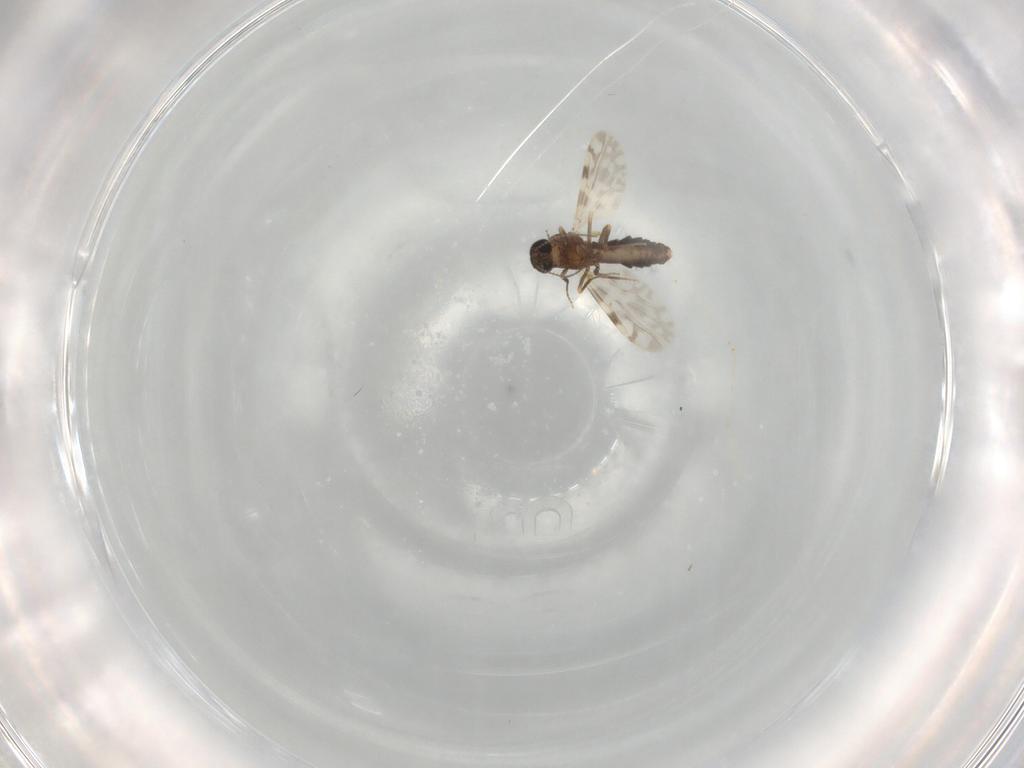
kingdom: Animalia
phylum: Arthropoda
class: Insecta
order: Diptera
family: Ceratopogonidae
